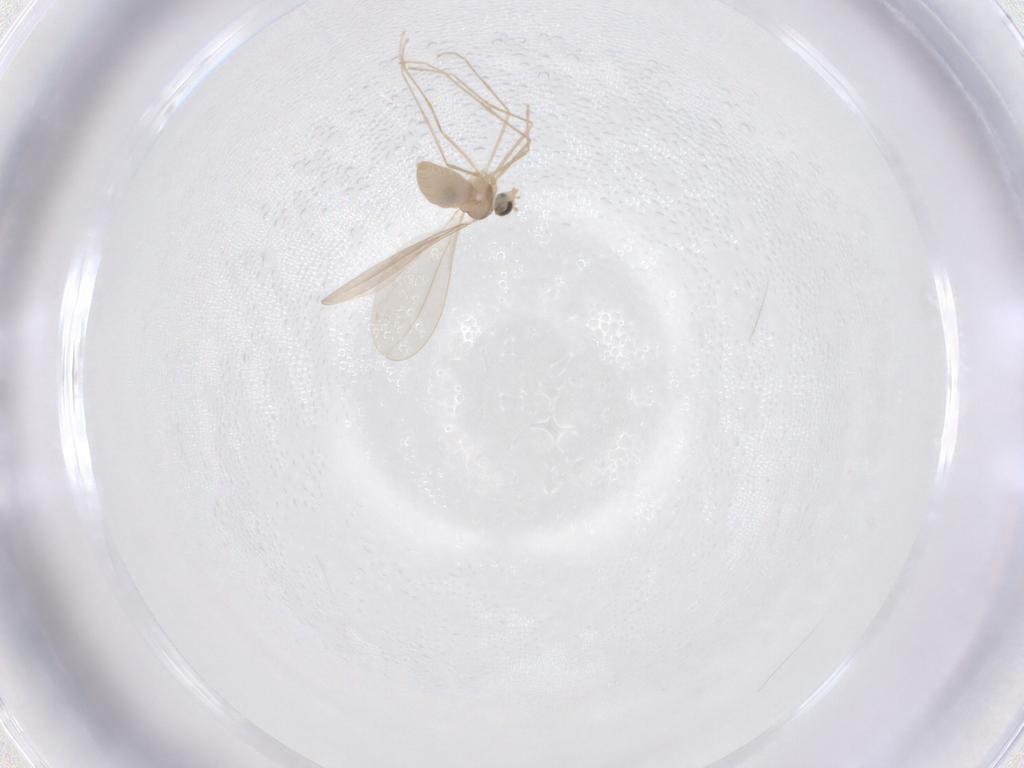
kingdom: Animalia
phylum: Arthropoda
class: Insecta
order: Diptera
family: Cecidomyiidae
